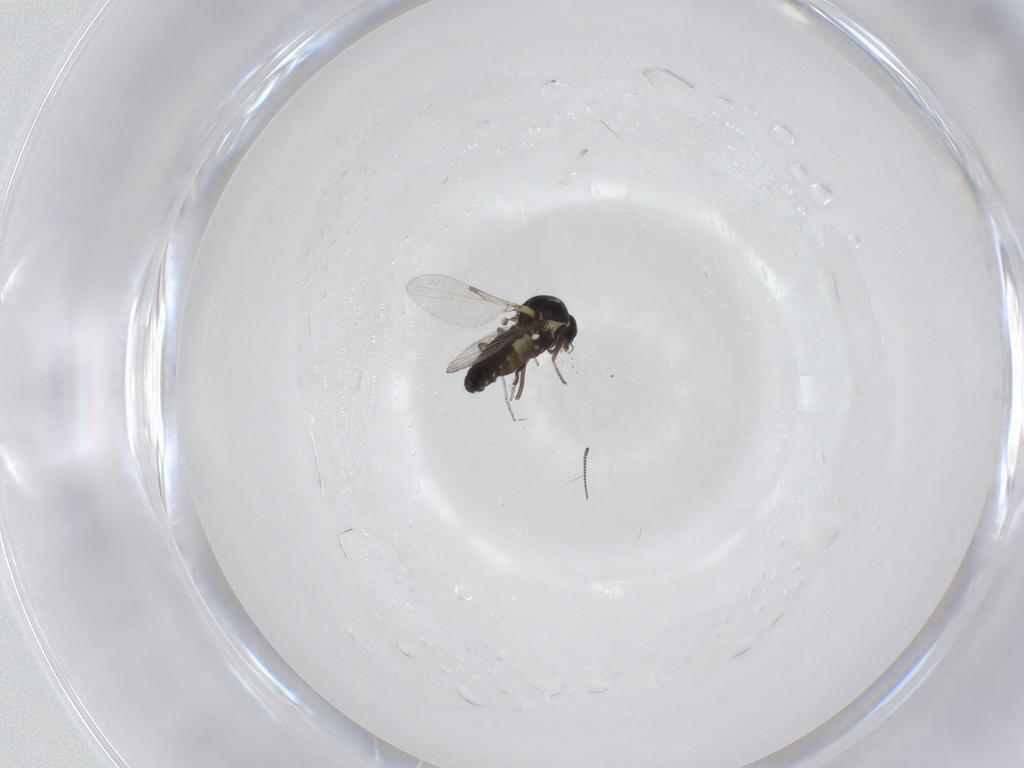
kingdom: Animalia
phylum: Arthropoda
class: Insecta
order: Diptera
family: Ceratopogonidae
